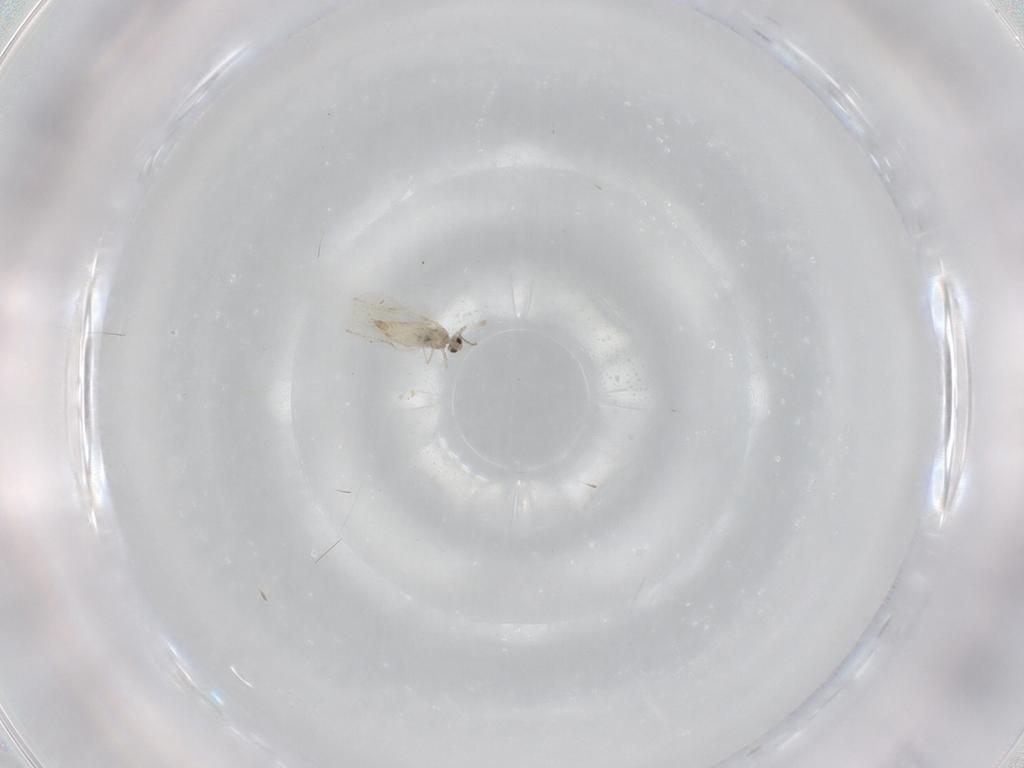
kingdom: Animalia
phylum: Arthropoda
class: Insecta
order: Diptera
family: Cecidomyiidae
